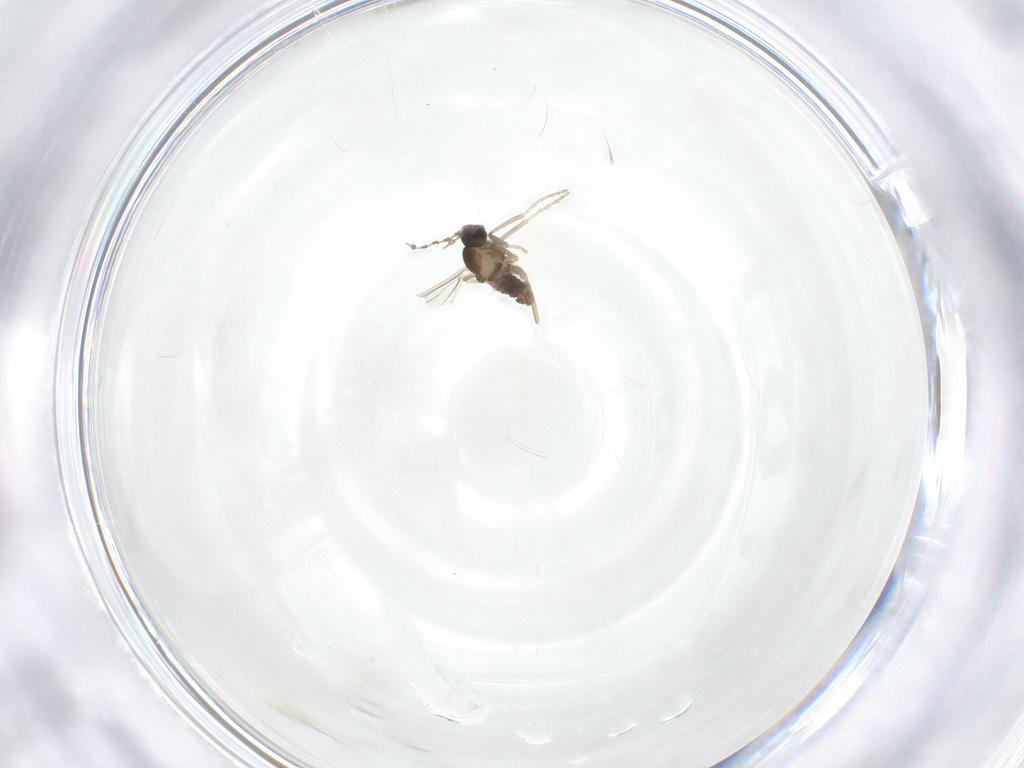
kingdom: Animalia
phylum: Arthropoda
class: Insecta
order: Diptera
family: Cecidomyiidae
